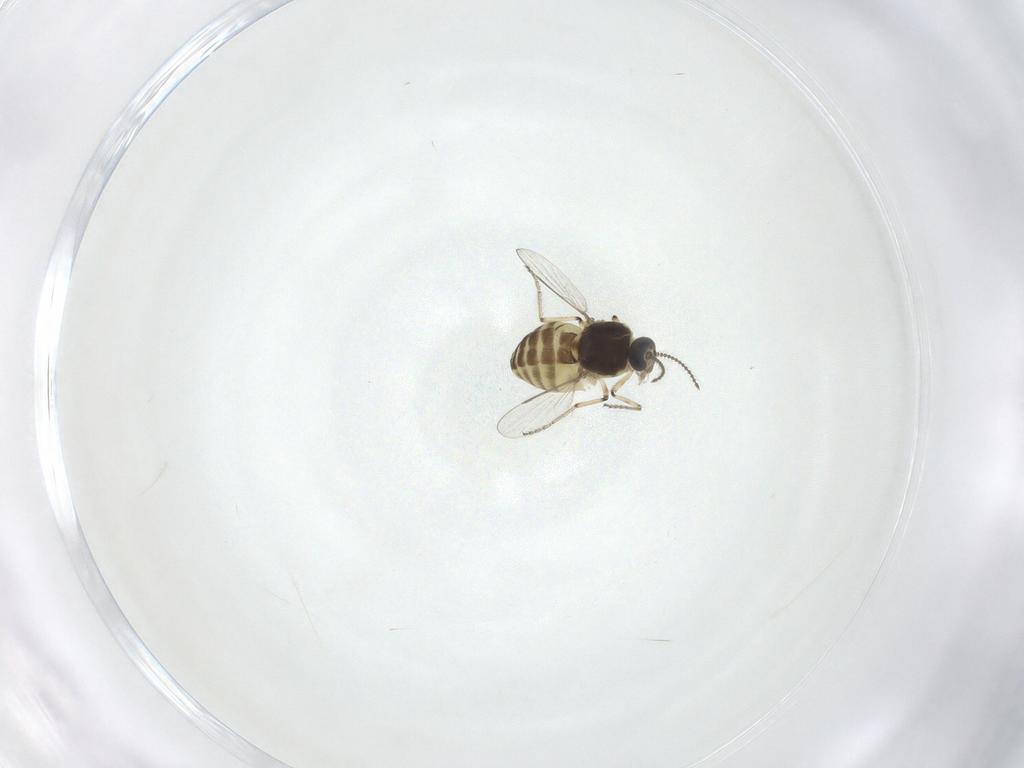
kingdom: Animalia
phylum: Arthropoda
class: Insecta
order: Diptera
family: Ceratopogonidae
